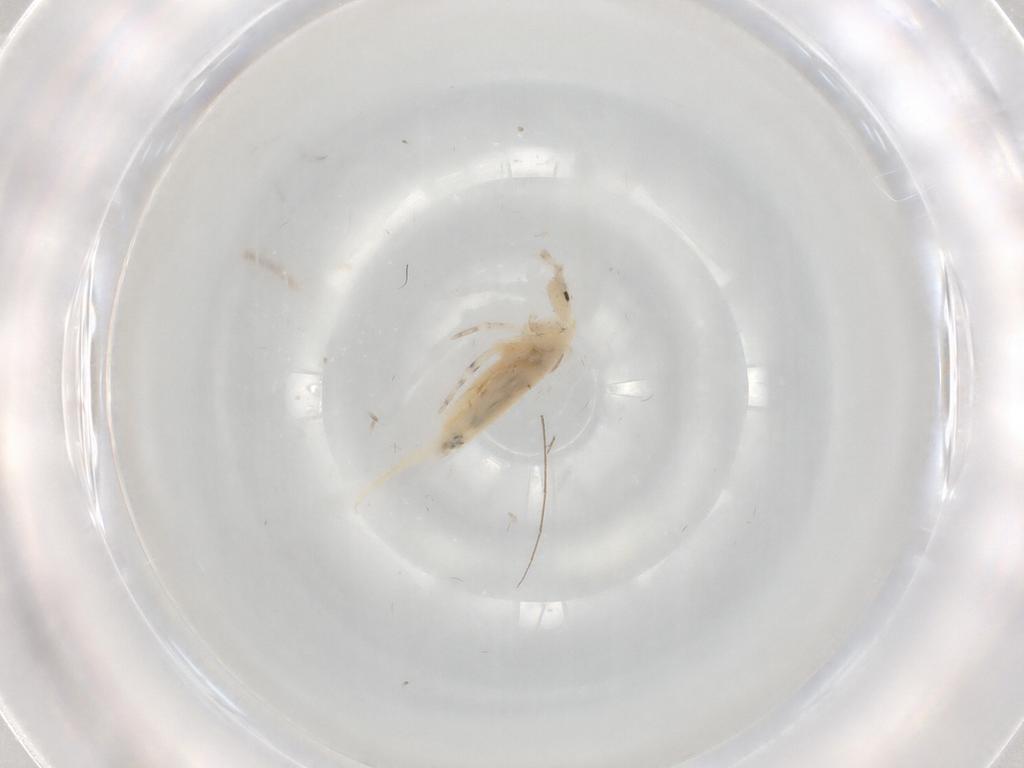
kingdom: Animalia
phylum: Arthropoda
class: Collembola
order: Entomobryomorpha
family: Entomobryidae
